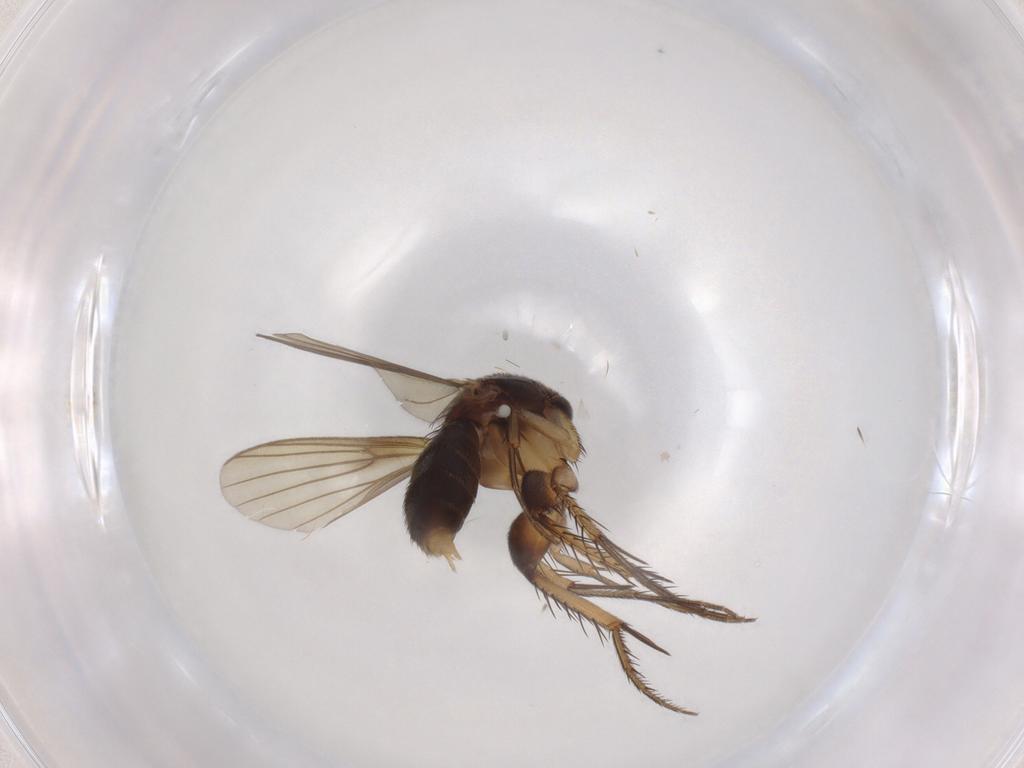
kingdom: Animalia
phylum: Arthropoda
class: Insecta
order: Diptera
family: Mycetophilidae
